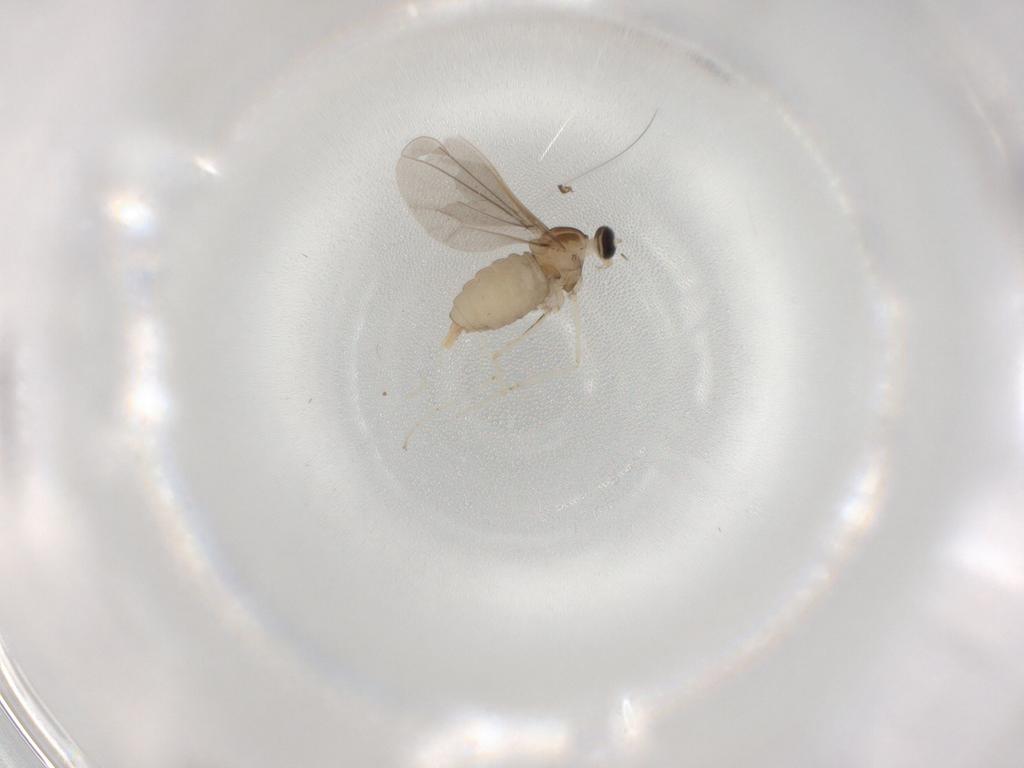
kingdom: Animalia
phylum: Arthropoda
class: Insecta
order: Diptera
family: Cecidomyiidae
